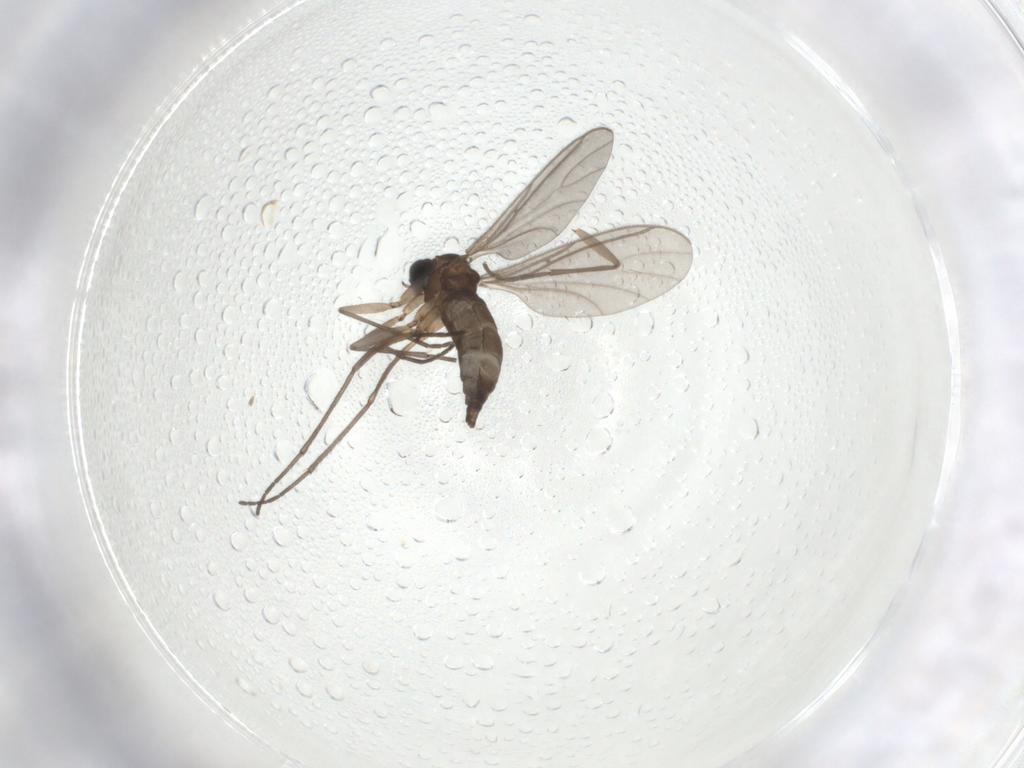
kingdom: Animalia
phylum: Arthropoda
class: Insecta
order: Diptera
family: Sciaridae
